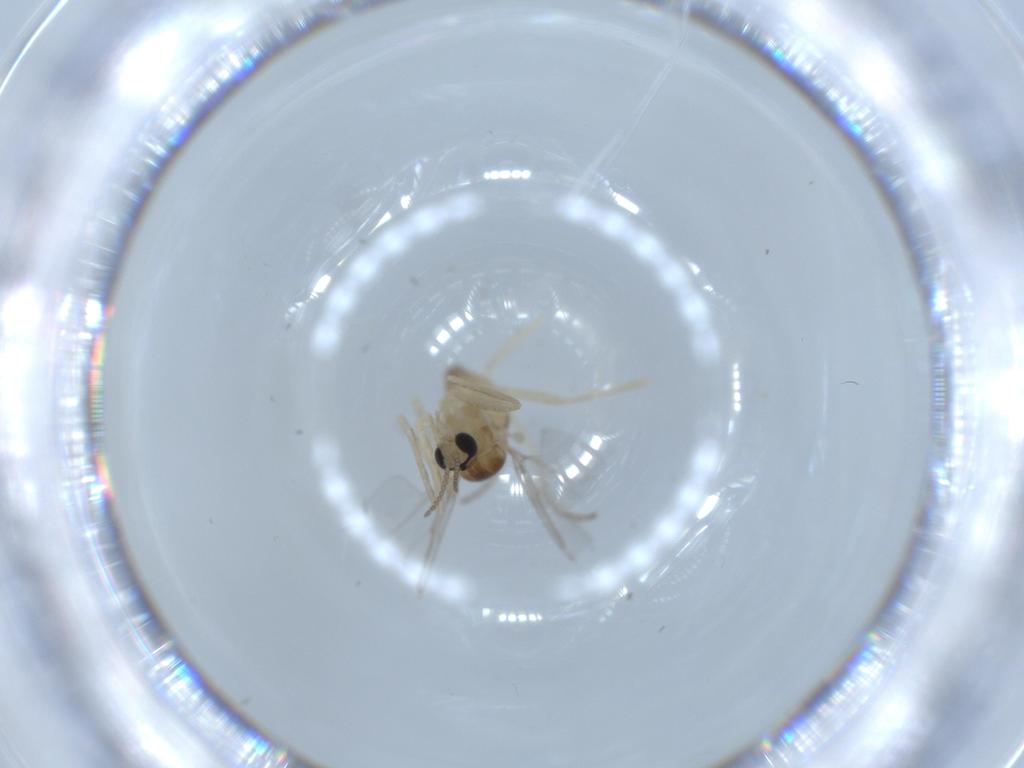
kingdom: Animalia
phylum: Arthropoda
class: Insecta
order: Diptera
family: Cecidomyiidae
